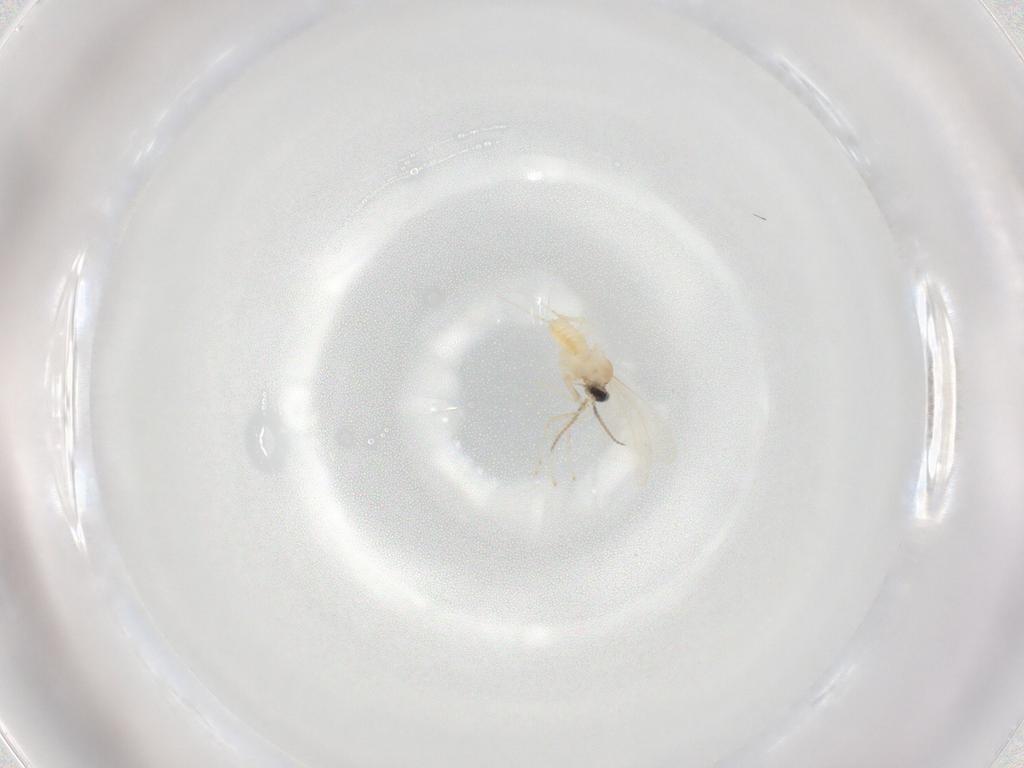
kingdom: Animalia
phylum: Arthropoda
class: Insecta
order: Diptera
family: Cecidomyiidae
